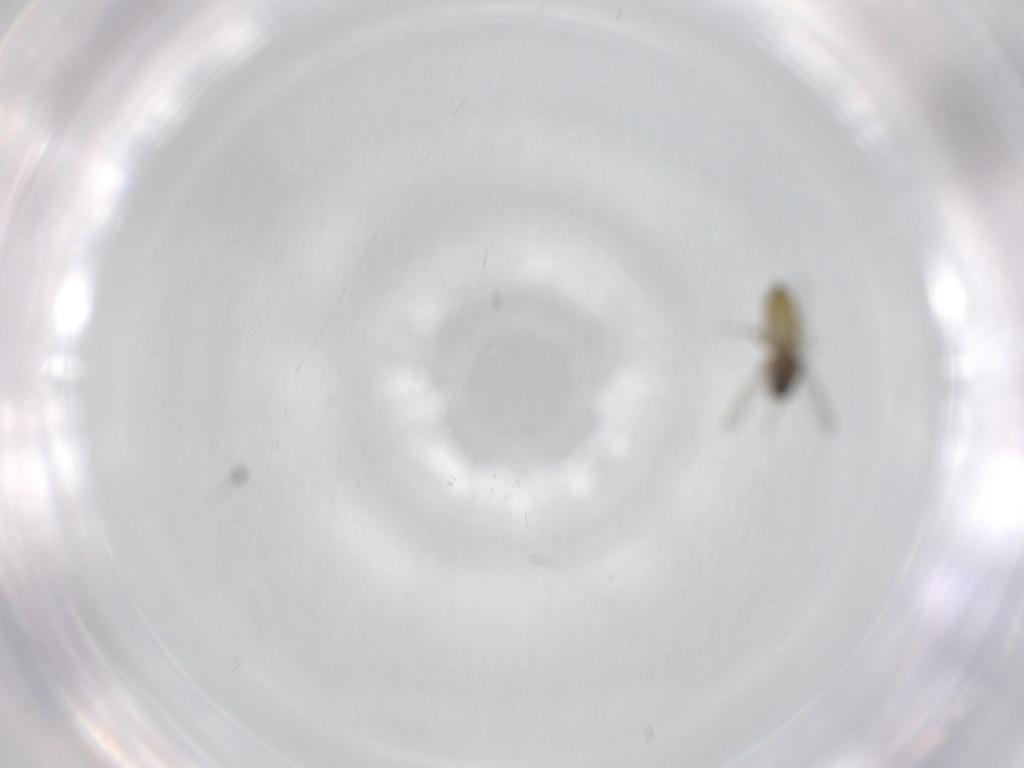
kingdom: Animalia
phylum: Arthropoda
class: Insecta
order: Diptera
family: Ceratopogonidae
